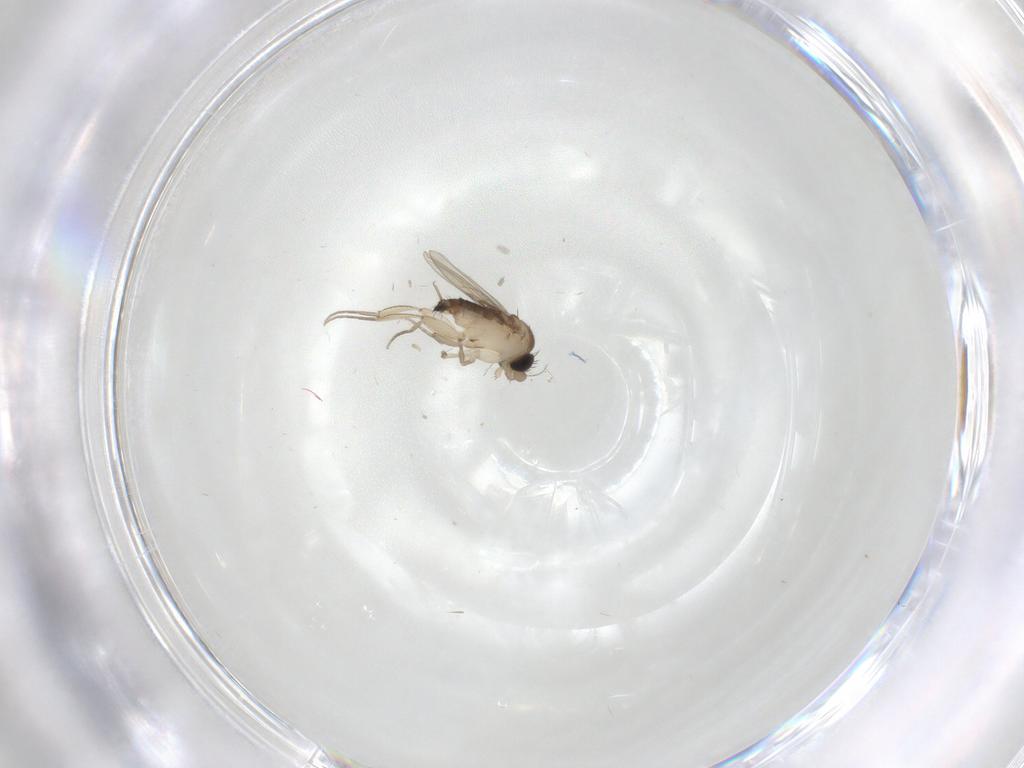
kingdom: Animalia
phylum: Arthropoda
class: Insecta
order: Diptera
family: Phoridae
